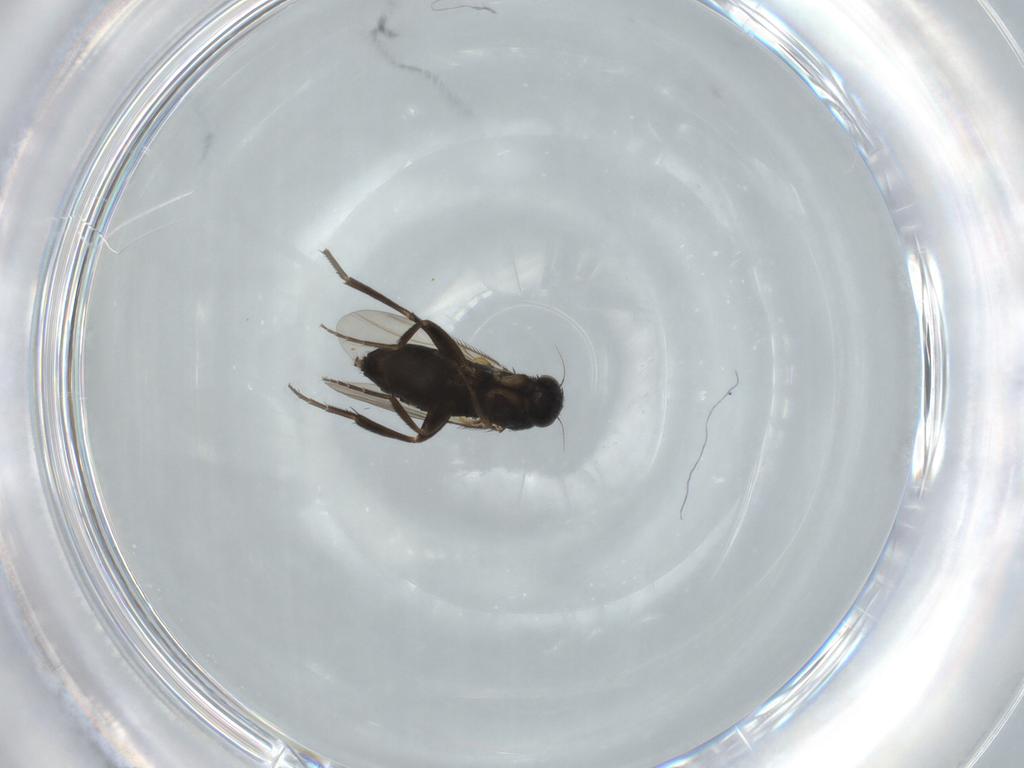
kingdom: Animalia
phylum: Arthropoda
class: Insecta
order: Diptera
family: Phoridae
